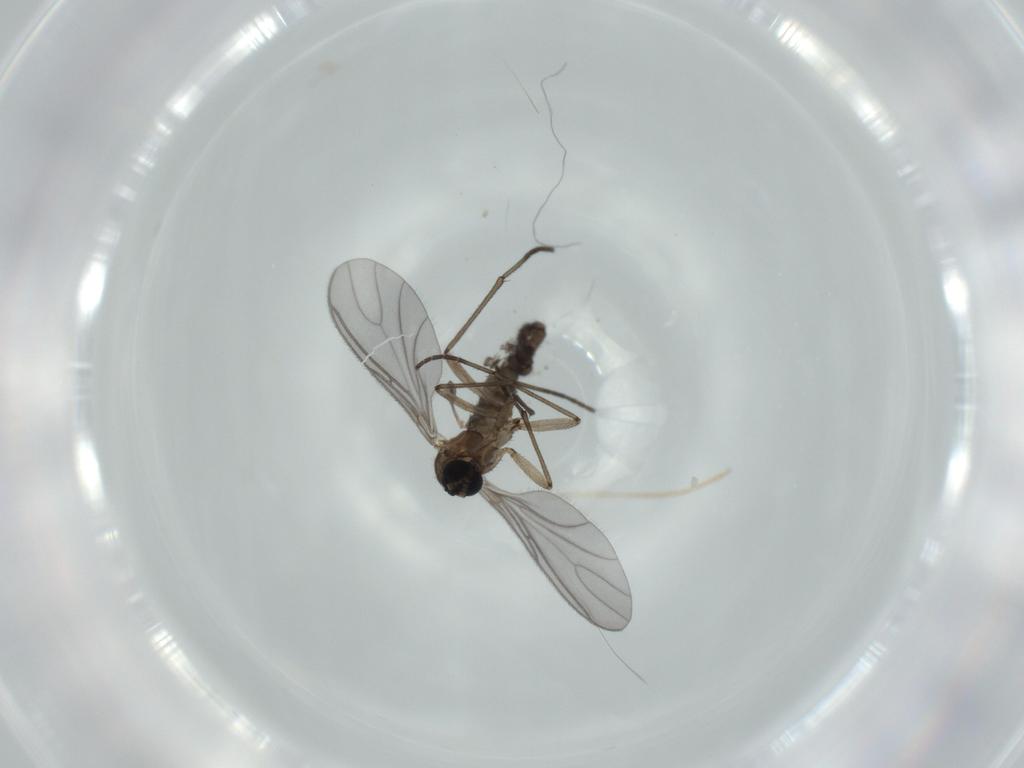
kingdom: Animalia
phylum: Arthropoda
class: Insecta
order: Diptera
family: Sciaridae
